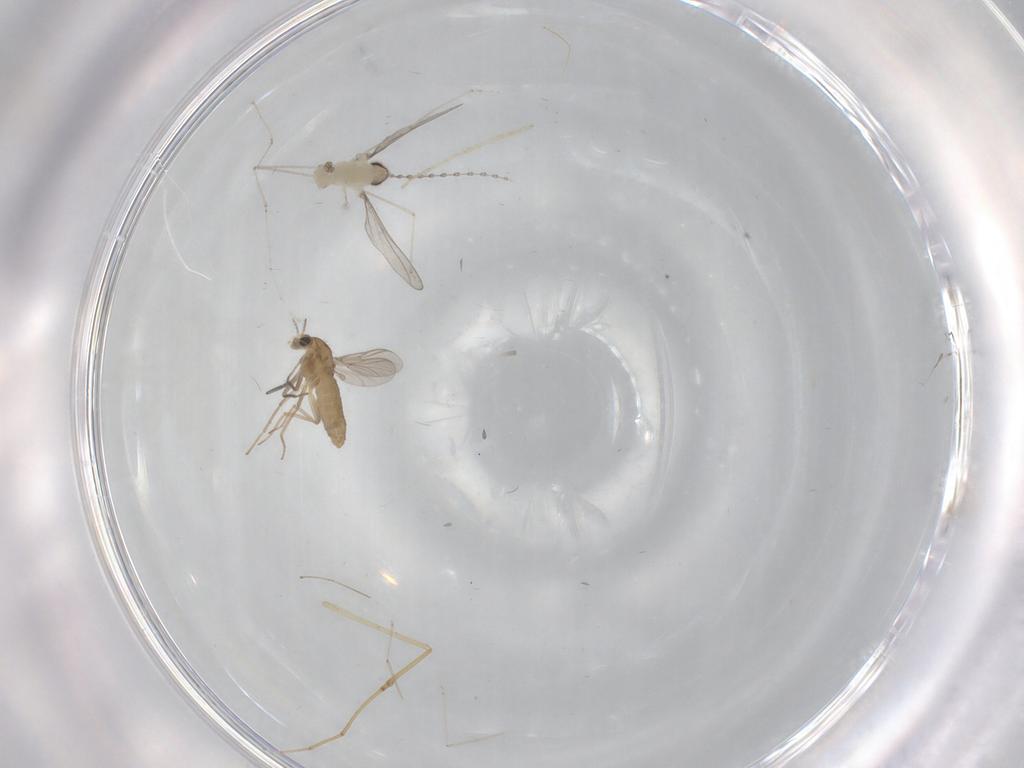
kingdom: Animalia
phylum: Arthropoda
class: Insecta
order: Diptera
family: Chironomidae
